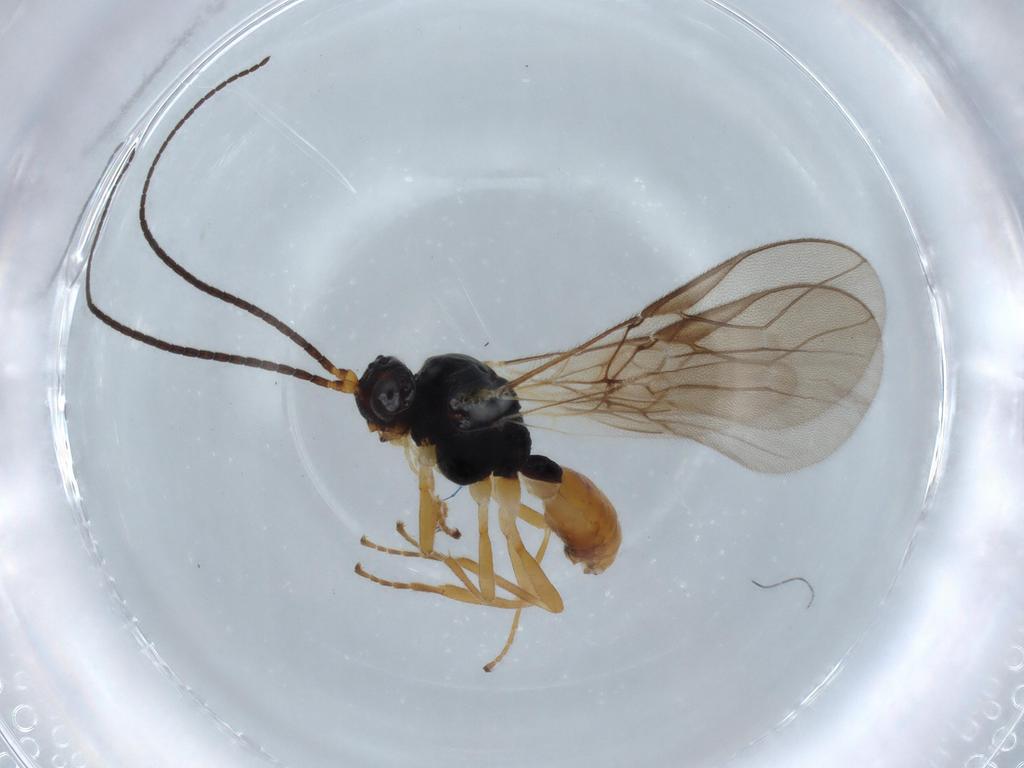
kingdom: Animalia
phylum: Arthropoda
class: Insecta
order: Hymenoptera
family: Braconidae
